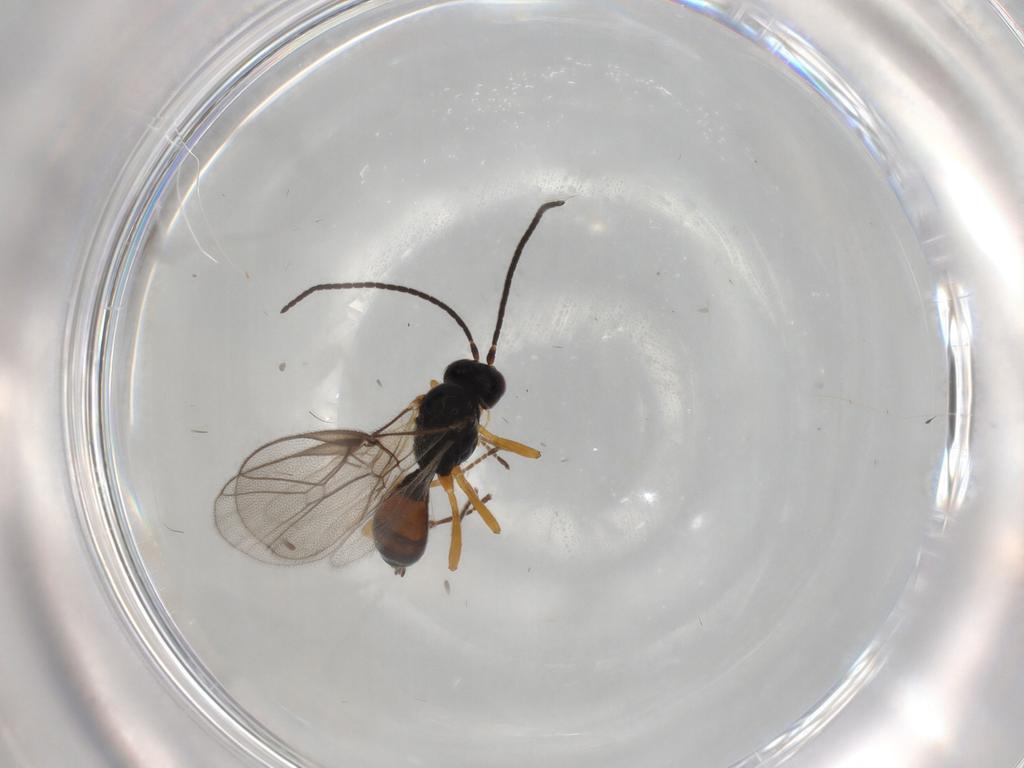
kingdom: Animalia
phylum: Arthropoda
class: Insecta
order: Hymenoptera
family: Braconidae
